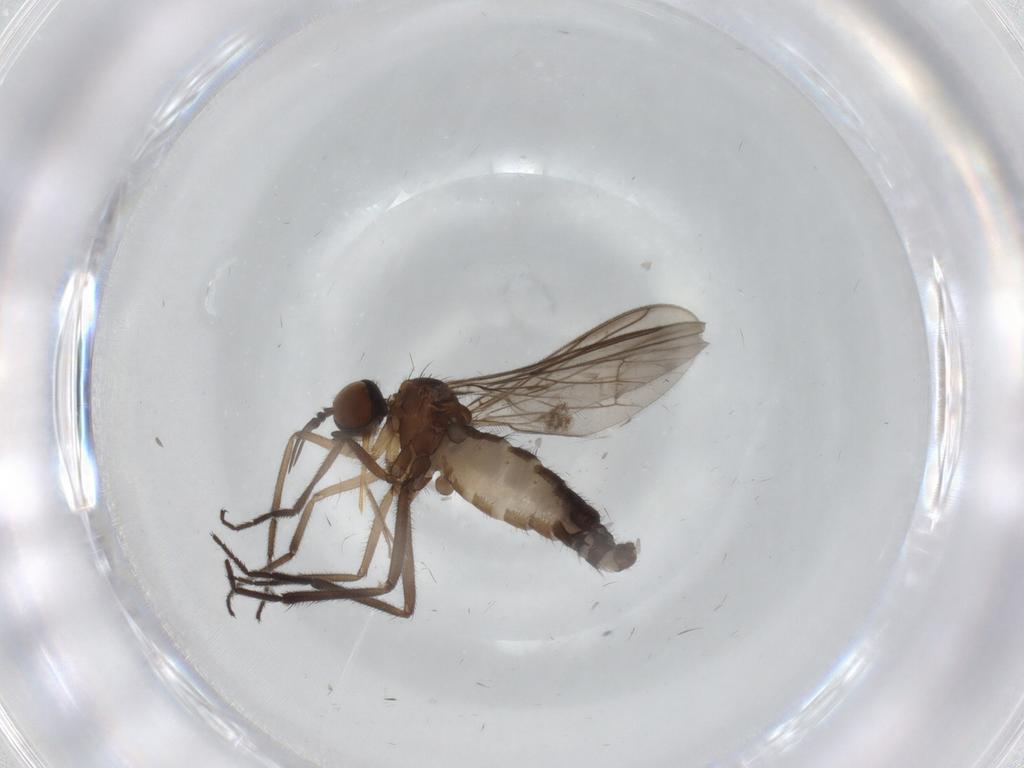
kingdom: Animalia
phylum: Arthropoda
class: Insecta
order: Diptera
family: Empididae
